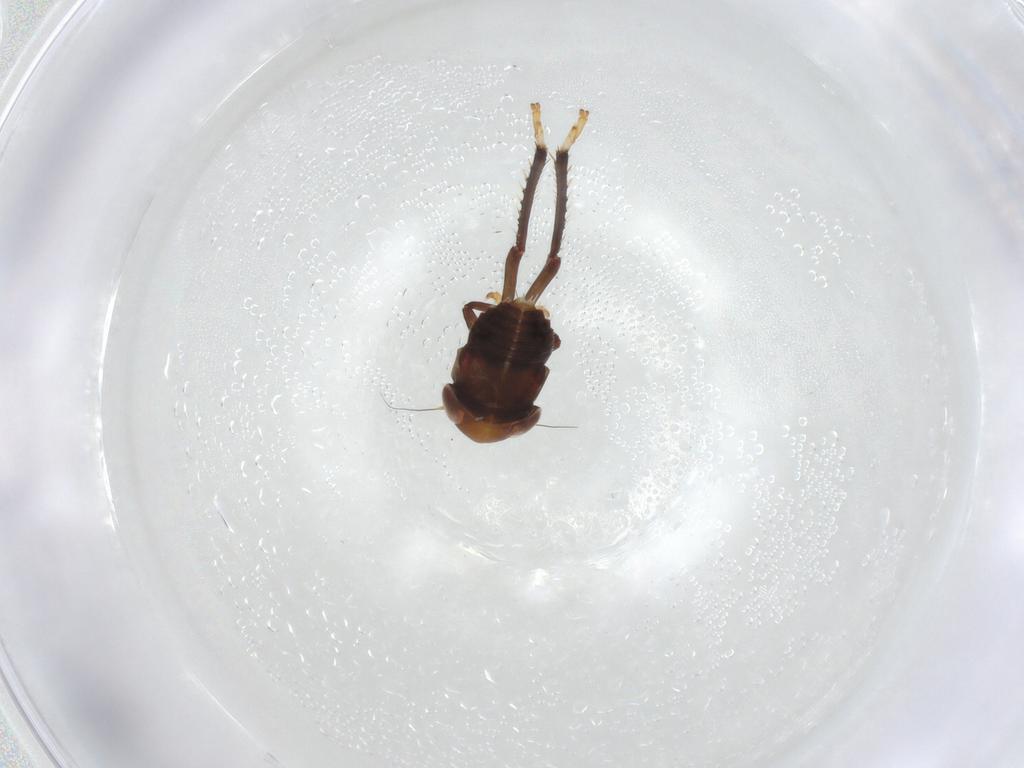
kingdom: Animalia
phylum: Arthropoda
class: Insecta
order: Hemiptera
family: Cicadellidae
